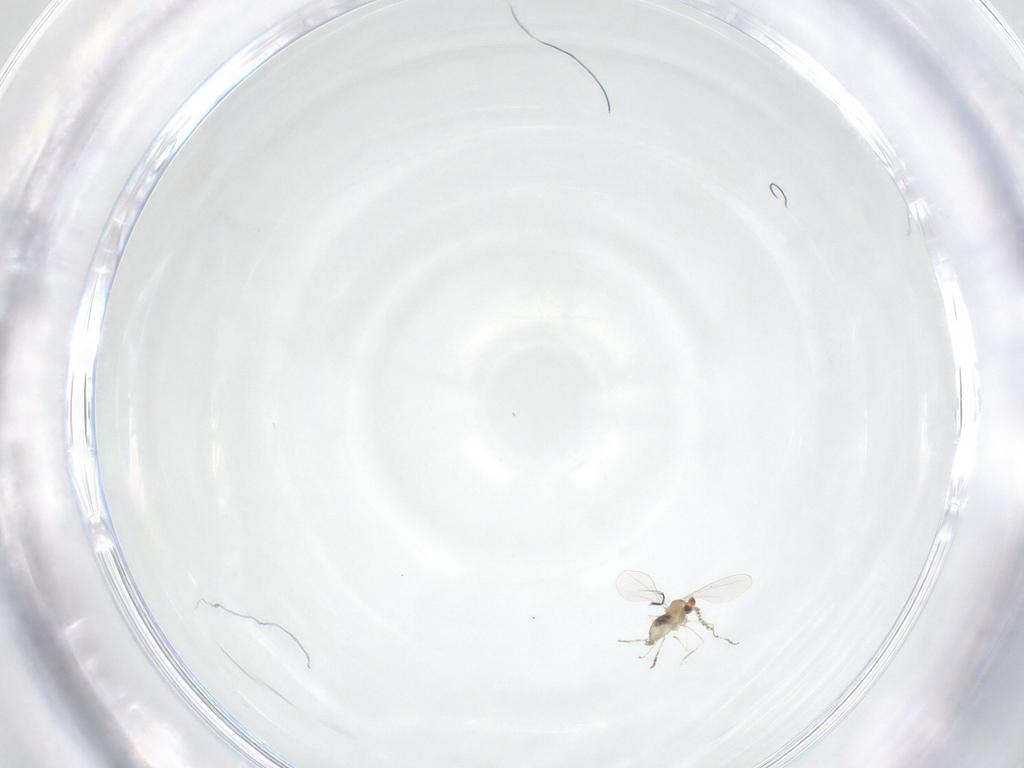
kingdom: Animalia
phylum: Arthropoda
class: Insecta
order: Diptera
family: Cecidomyiidae
